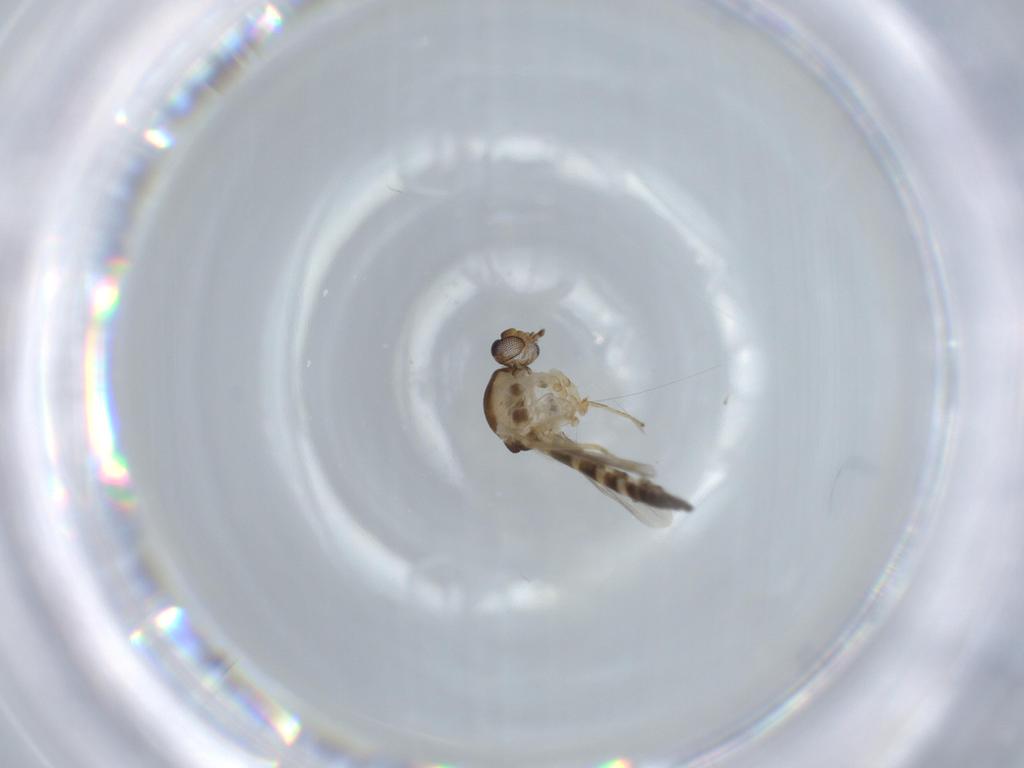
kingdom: Animalia
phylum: Arthropoda
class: Insecta
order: Diptera
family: Ceratopogonidae
